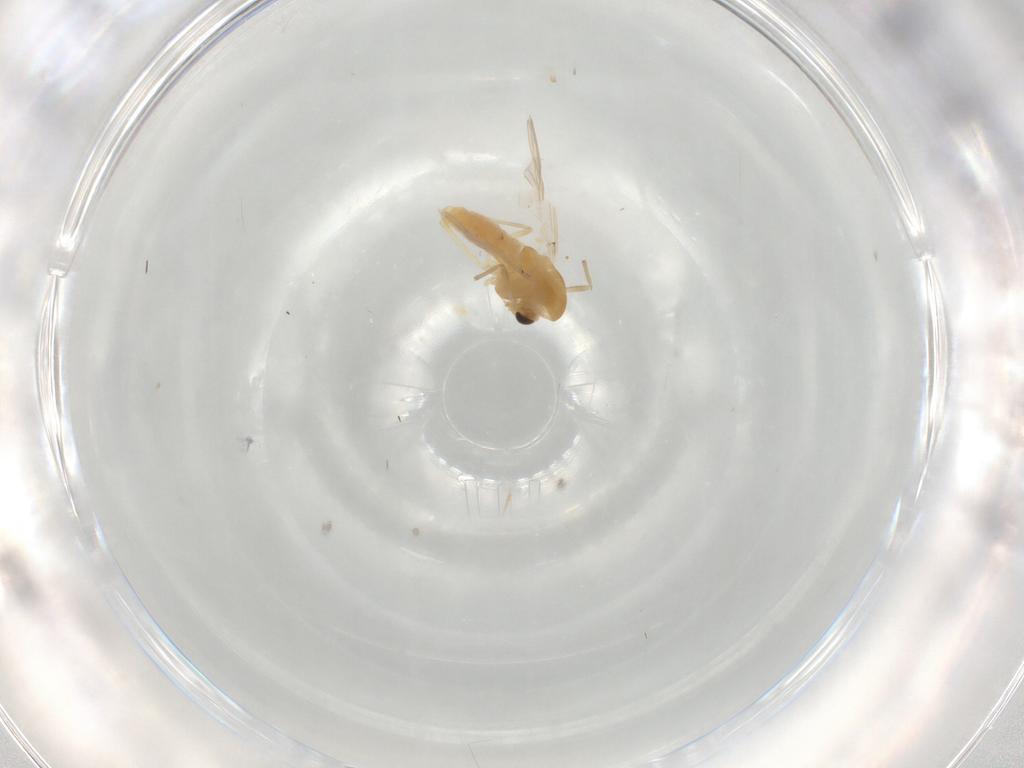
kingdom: Animalia
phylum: Arthropoda
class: Insecta
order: Diptera
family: Chironomidae
